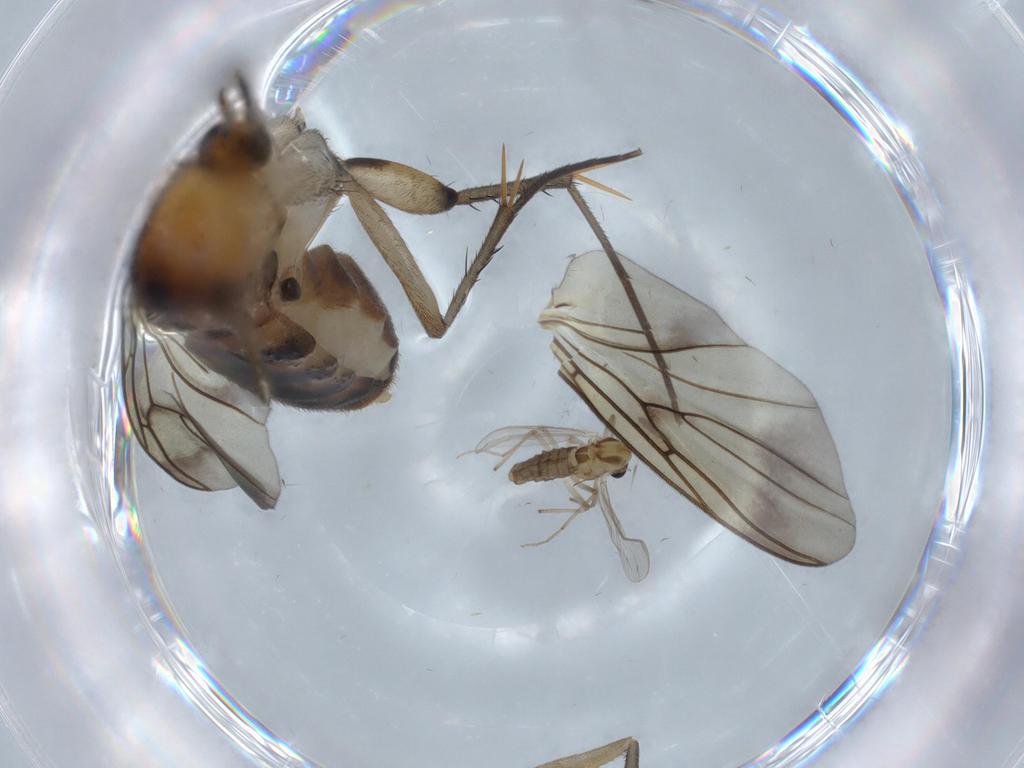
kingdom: Animalia
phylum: Arthropoda
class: Insecta
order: Diptera
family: Mycetophilidae
